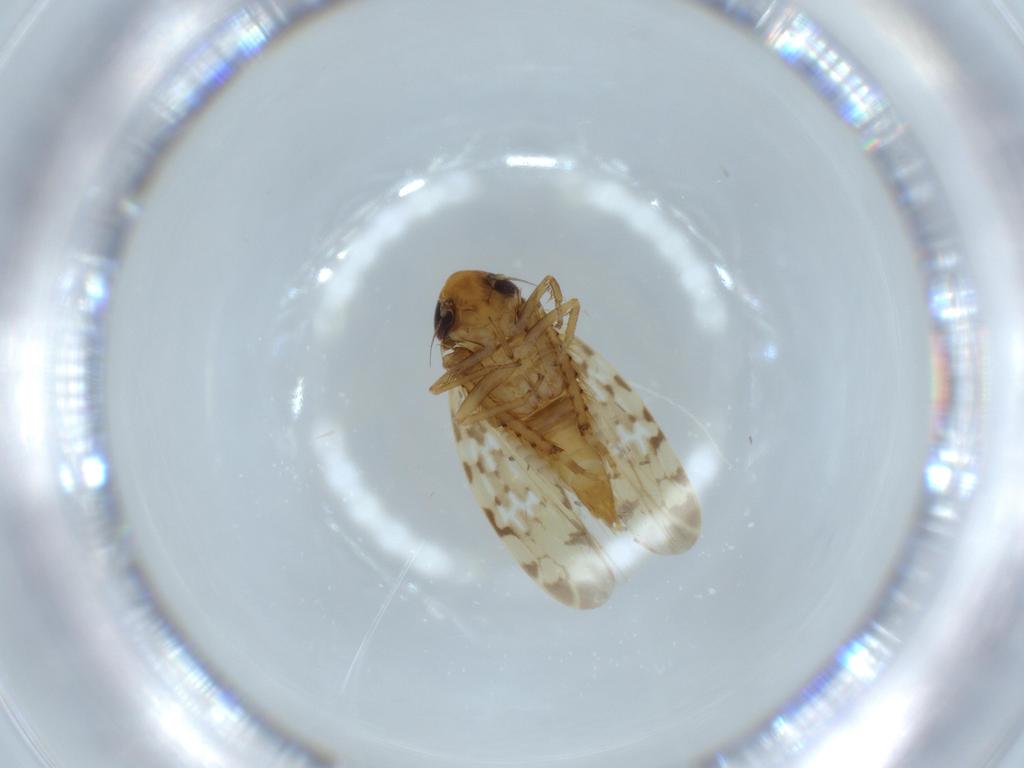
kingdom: Animalia
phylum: Arthropoda
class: Insecta
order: Hemiptera
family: Cicadellidae
